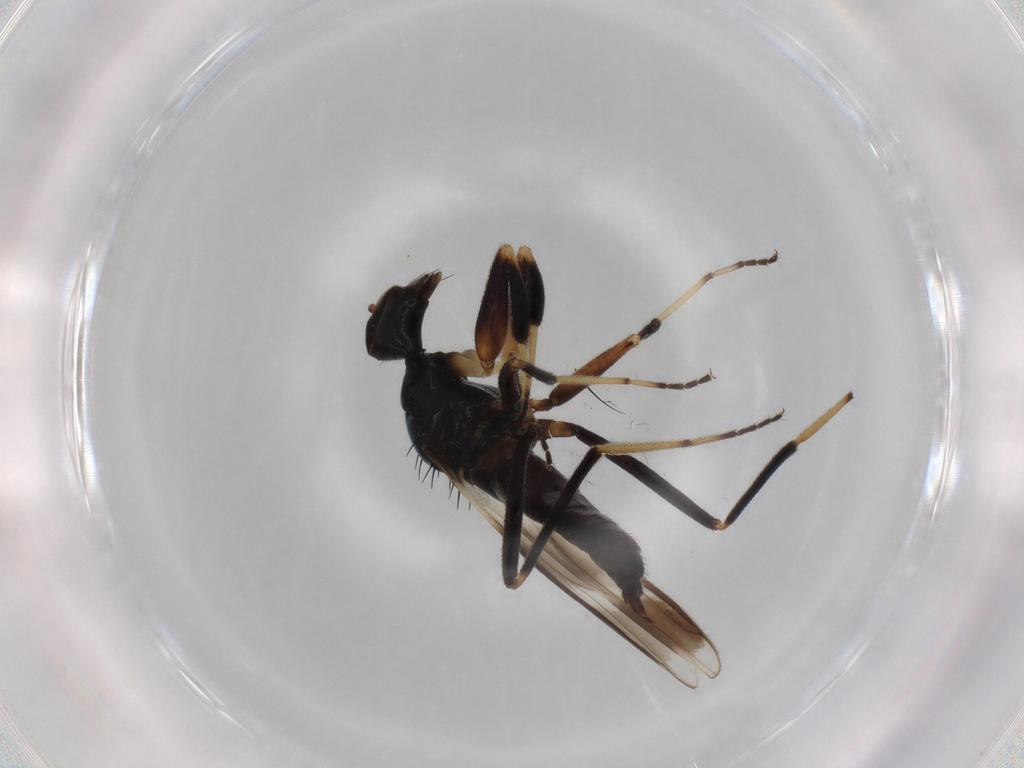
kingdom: Animalia
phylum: Arthropoda
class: Insecta
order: Diptera
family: Hybotidae
